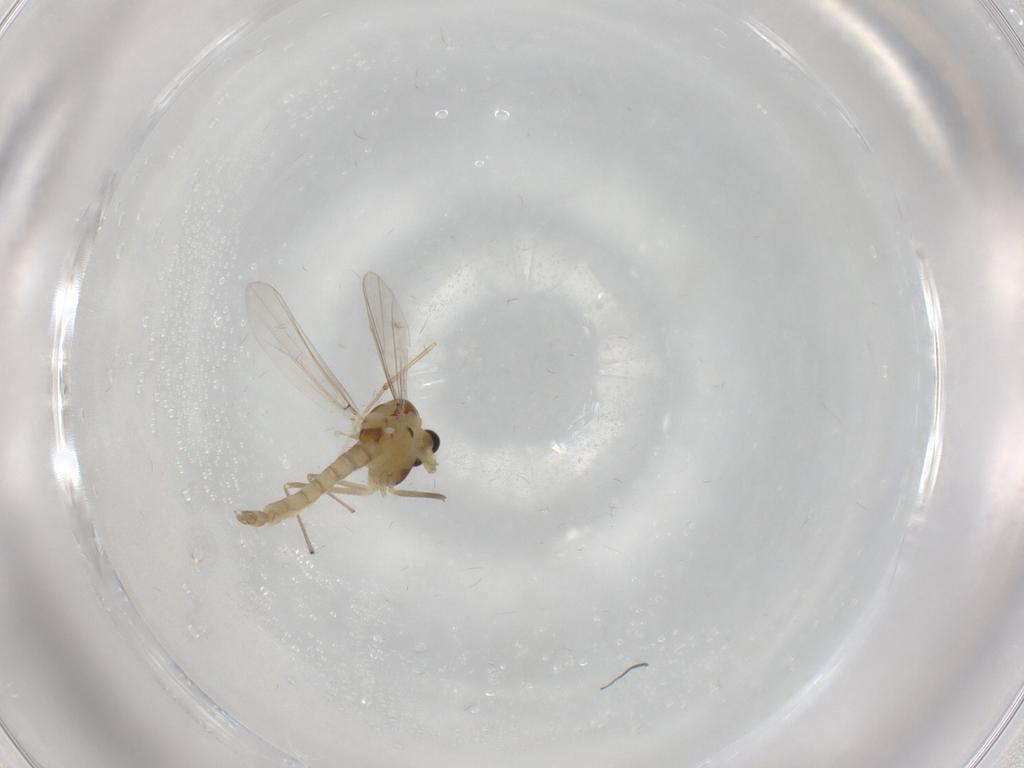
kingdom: Animalia
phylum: Arthropoda
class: Insecta
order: Diptera
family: Chironomidae
